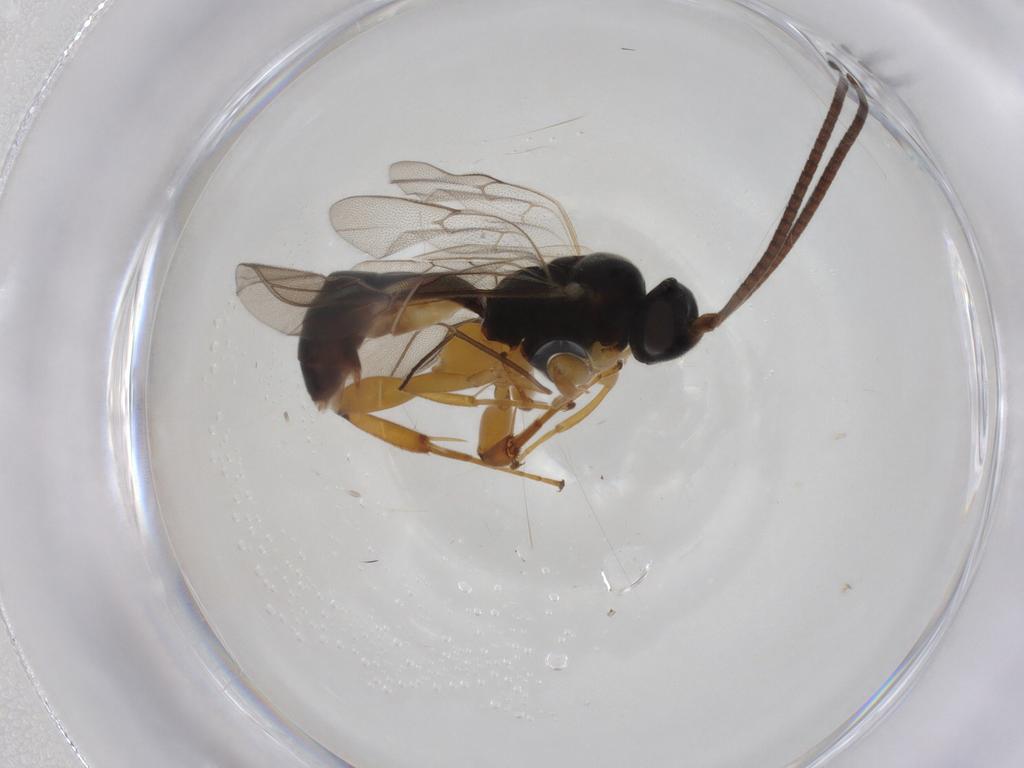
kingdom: Animalia
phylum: Arthropoda
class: Insecta
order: Hymenoptera
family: Ichneumonidae
